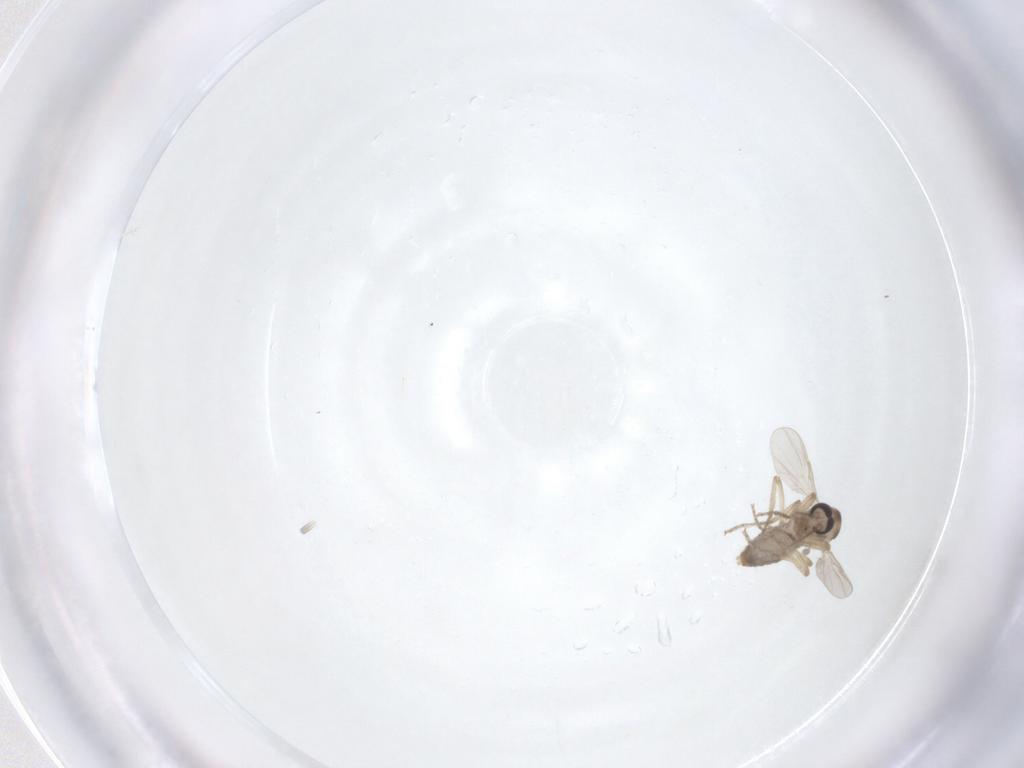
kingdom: Animalia
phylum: Arthropoda
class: Insecta
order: Diptera
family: Ceratopogonidae
